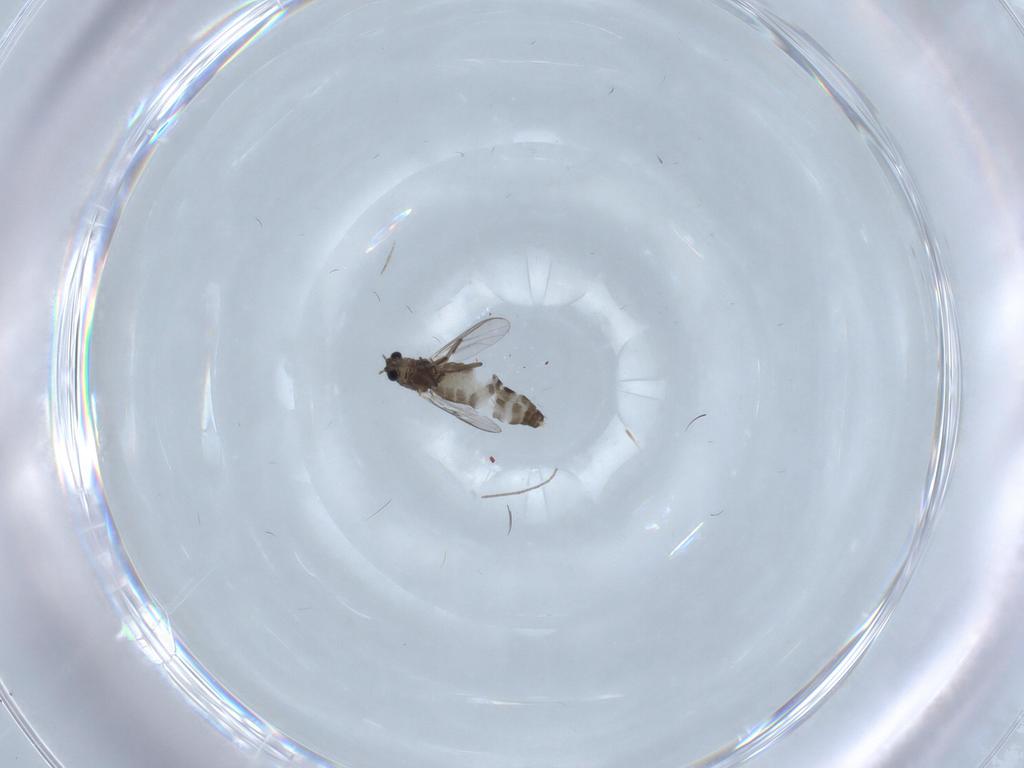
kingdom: Animalia
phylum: Arthropoda
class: Insecta
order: Diptera
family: Chironomidae
